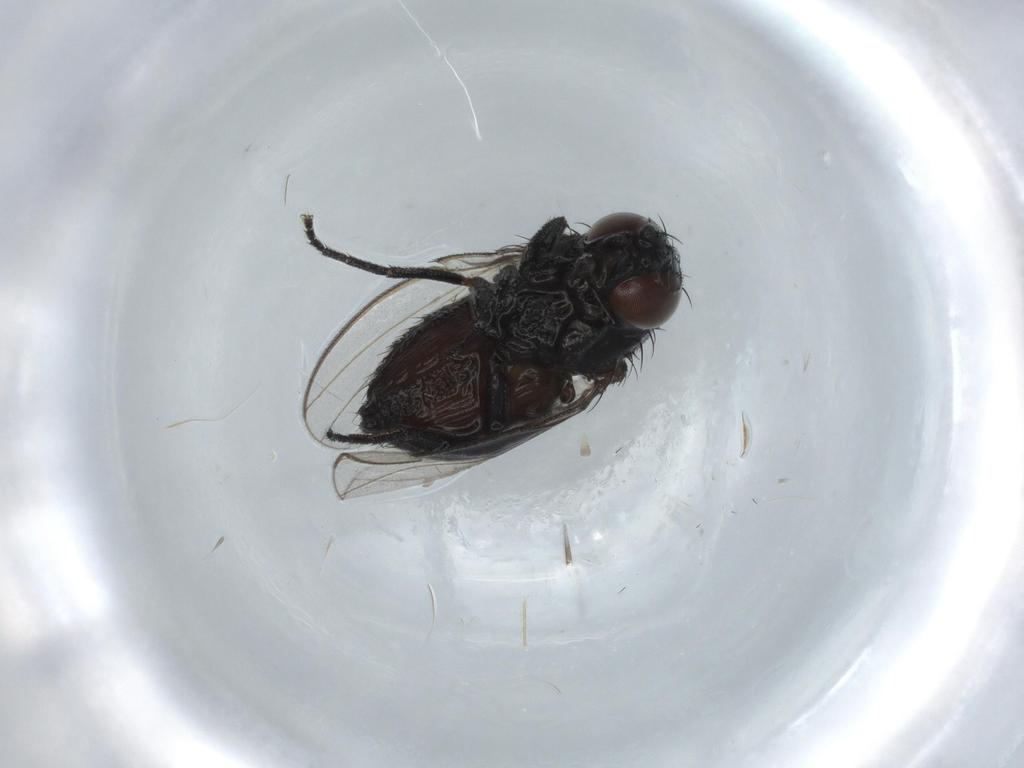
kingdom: Animalia
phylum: Arthropoda
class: Insecta
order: Diptera
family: Milichiidae
